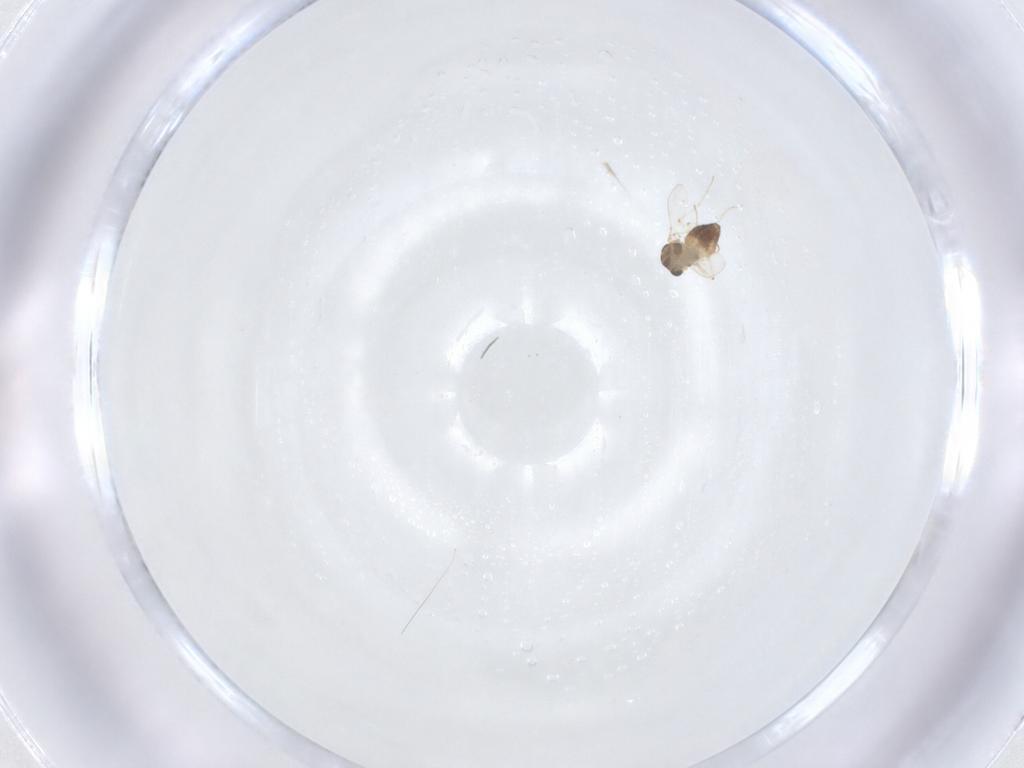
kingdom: Animalia
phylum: Arthropoda
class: Insecta
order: Diptera
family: Chironomidae
